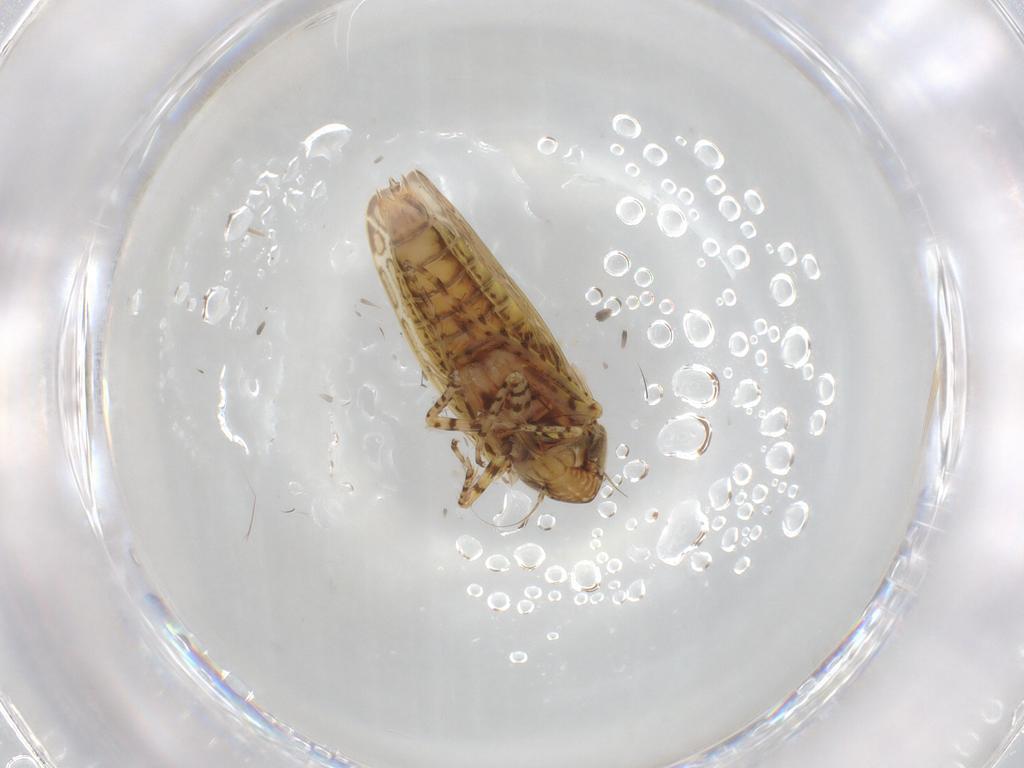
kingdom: Animalia
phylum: Arthropoda
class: Insecta
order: Hemiptera
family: Cicadellidae
